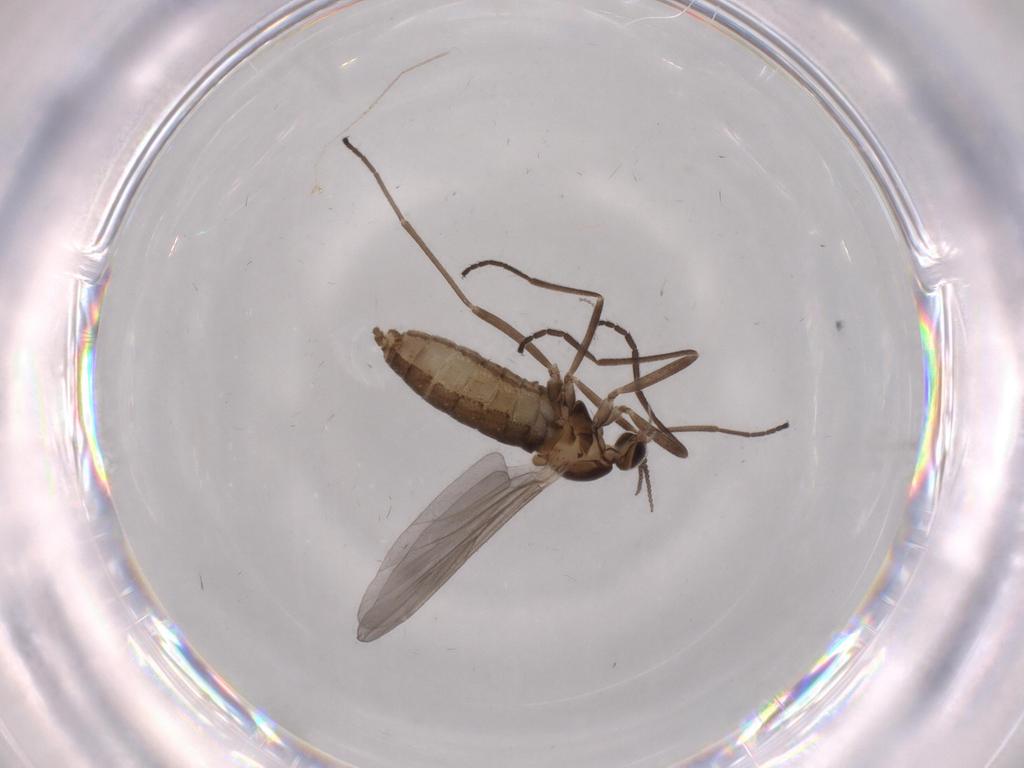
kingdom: Animalia
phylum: Arthropoda
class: Insecta
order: Diptera
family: Cecidomyiidae
